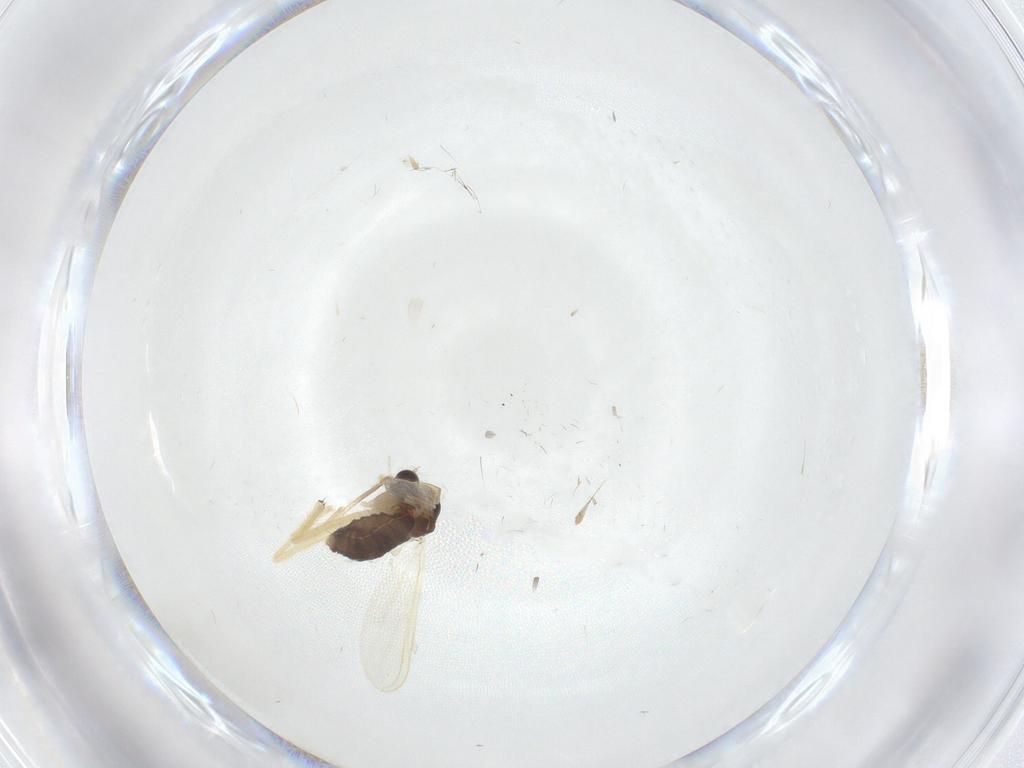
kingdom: Animalia
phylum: Arthropoda
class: Insecta
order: Diptera
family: Chironomidae
